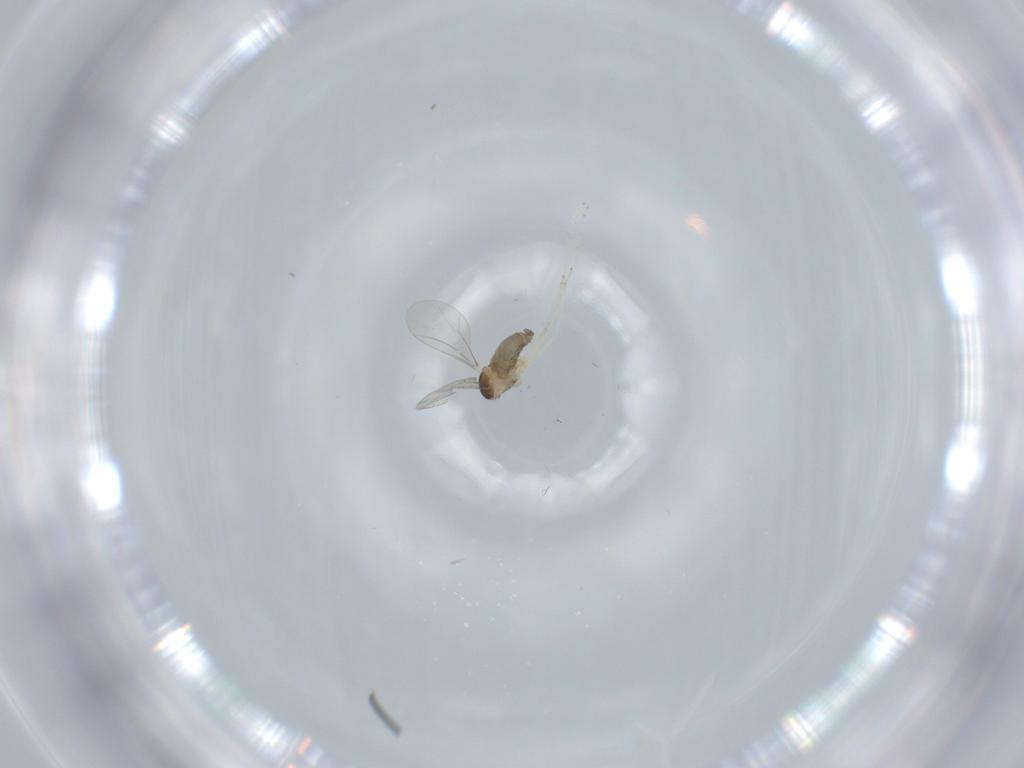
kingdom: Animalia
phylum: Arthropoda
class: Insecta
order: Diptera
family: Cecidomyiidae
